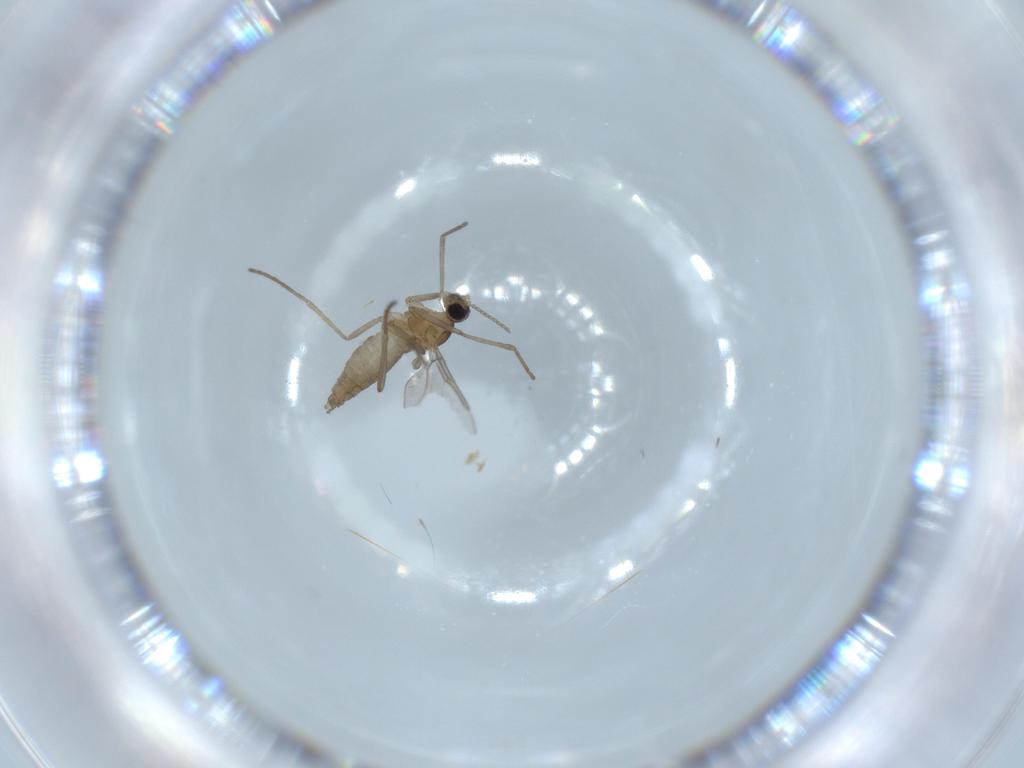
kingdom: Animalia
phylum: Arthropoda
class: Insecta
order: Diptera
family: Cecidomyiidae
